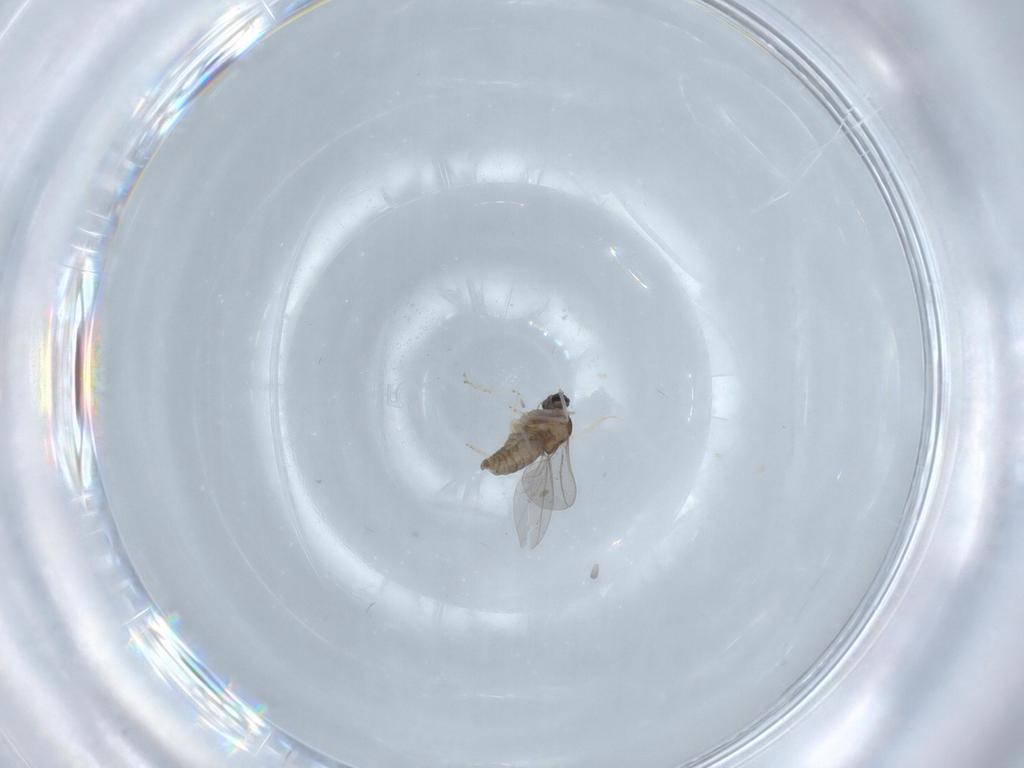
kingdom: Animalia
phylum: Arthropoda
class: Insecta
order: Diptera
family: Cecidomyiidae
